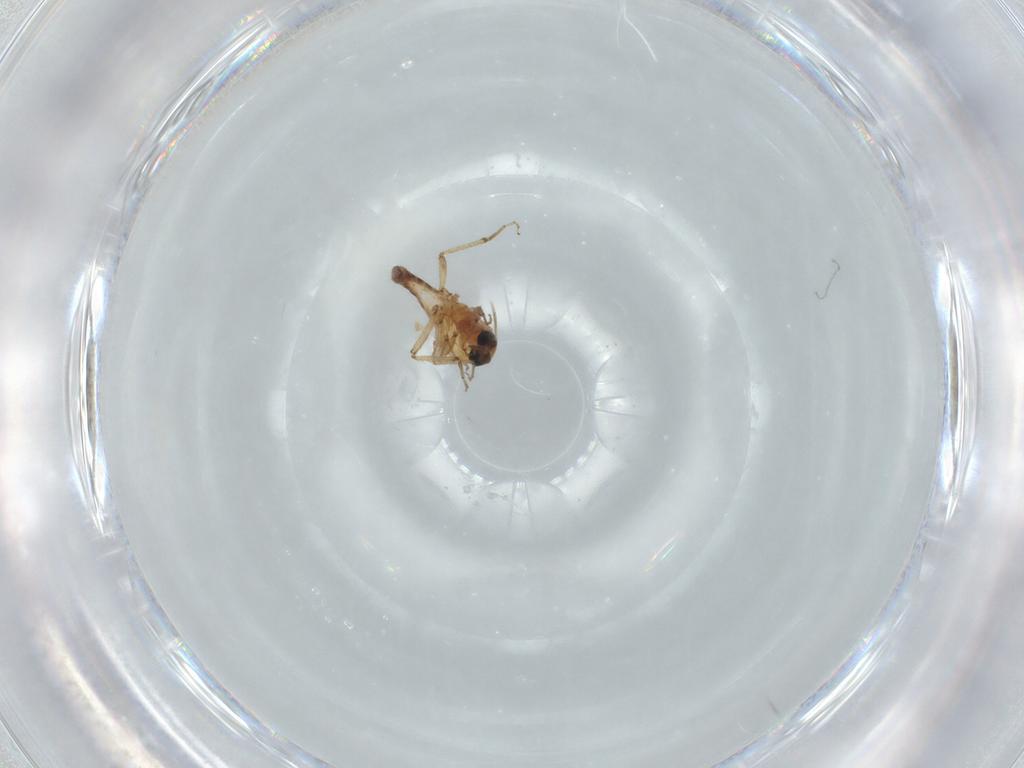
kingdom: Animalia
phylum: Arthropoda
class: Insecta
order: Diptera
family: Ceratopogonidae
